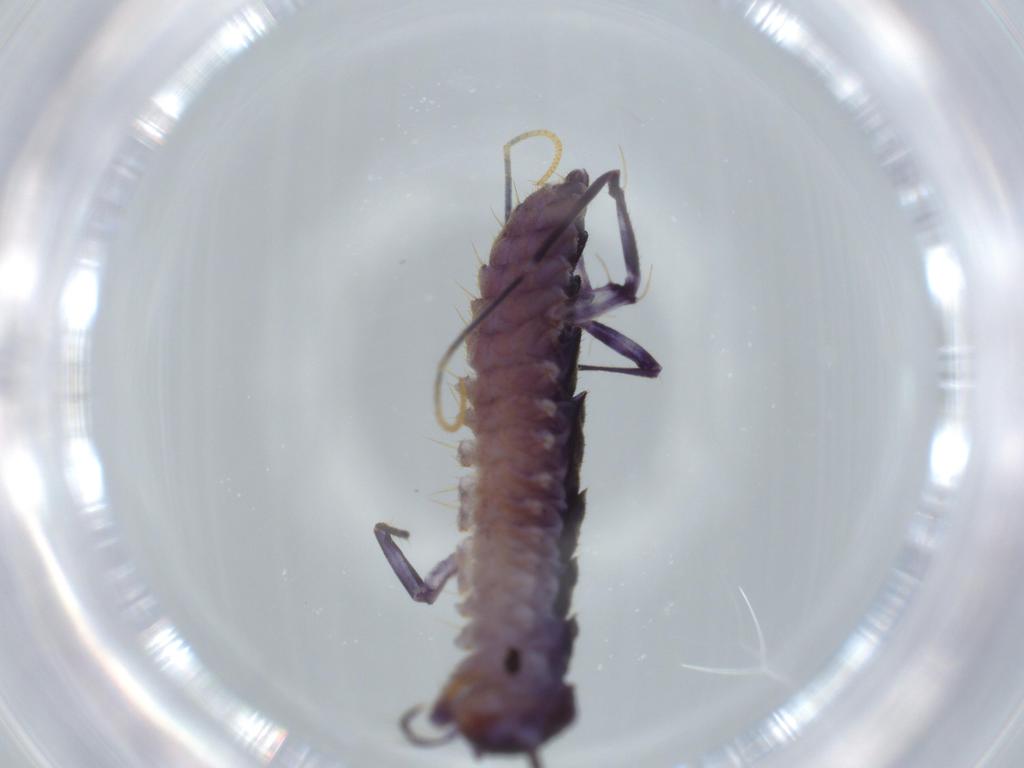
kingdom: Animalia
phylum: Arthropoda
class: Chilopoda
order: Scutigeromorpha
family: Scutigeridae
